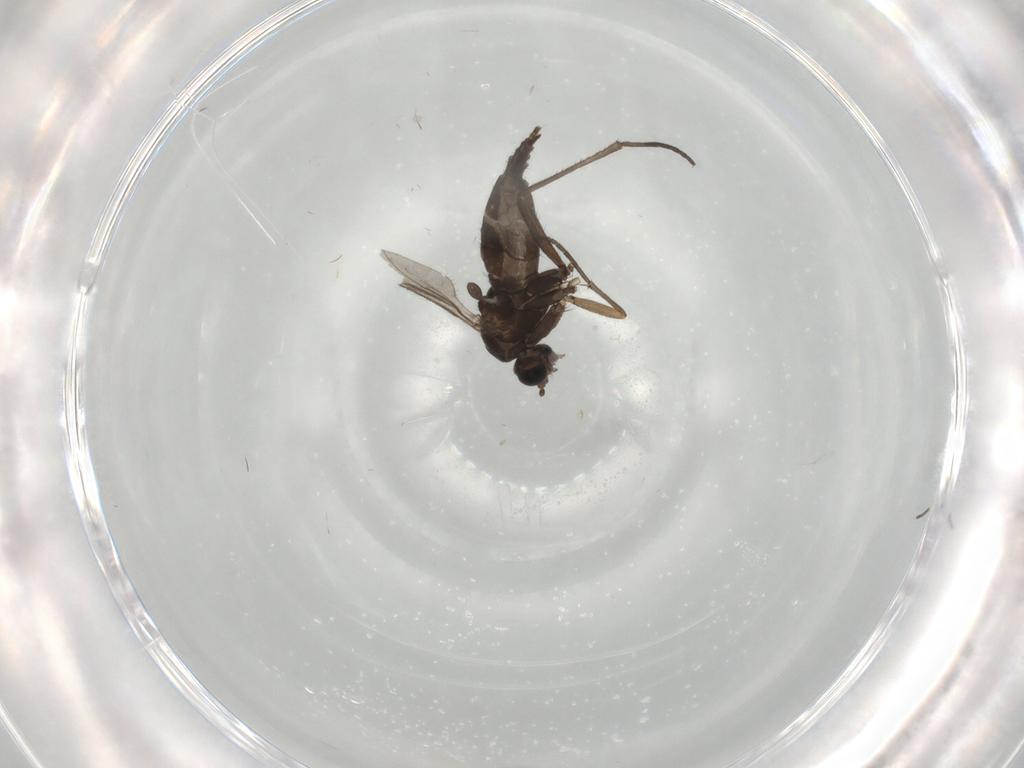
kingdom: Animalia
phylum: Arthropoda
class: Insecta
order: Diptera
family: Sciaridae
